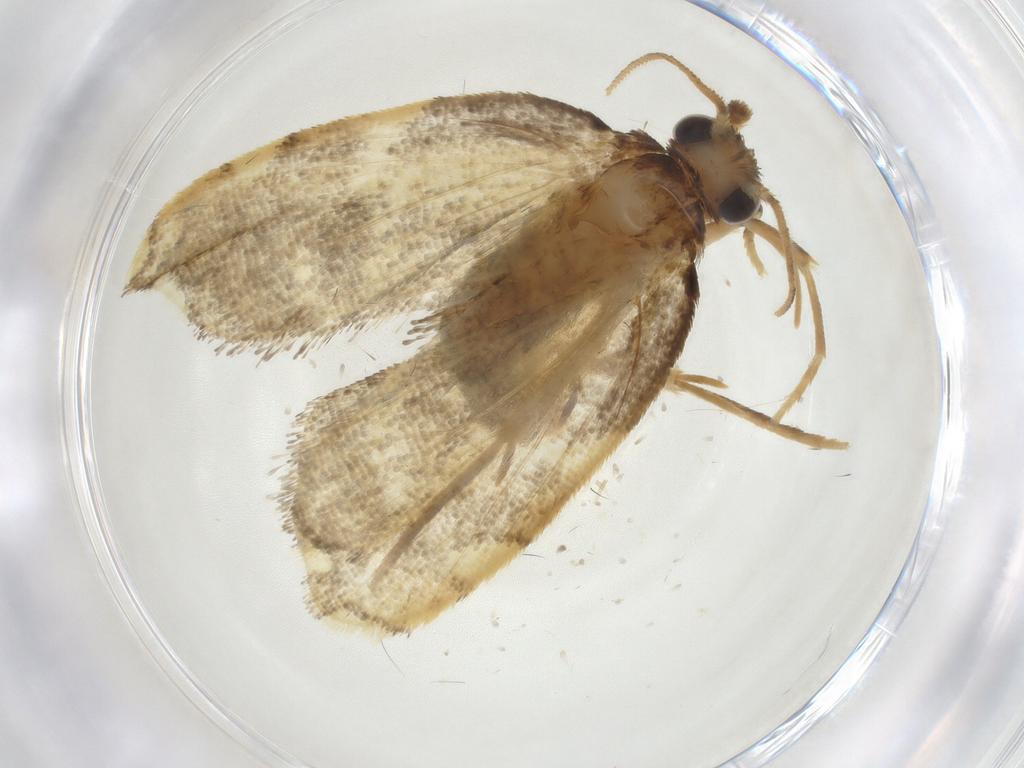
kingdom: Animalia
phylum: Arthropoda
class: Insecta
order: Lepidoptera
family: Psychidae
